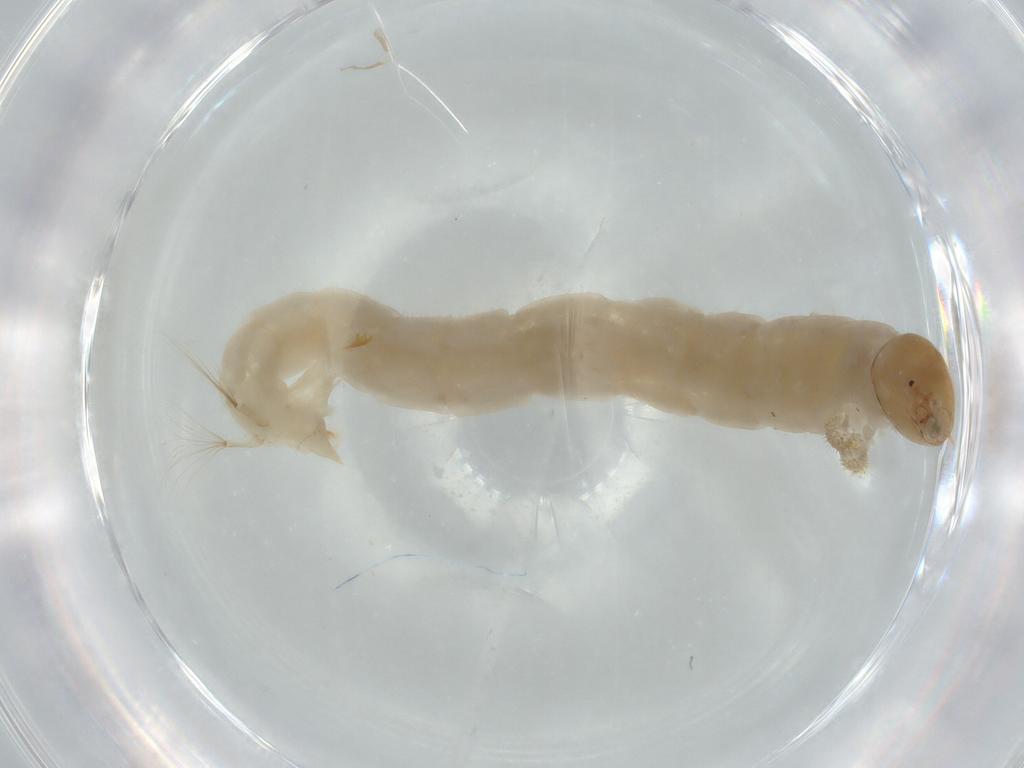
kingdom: Animalia
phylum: Arthropoda
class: Insecta
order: Diptera
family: Chironomidae
